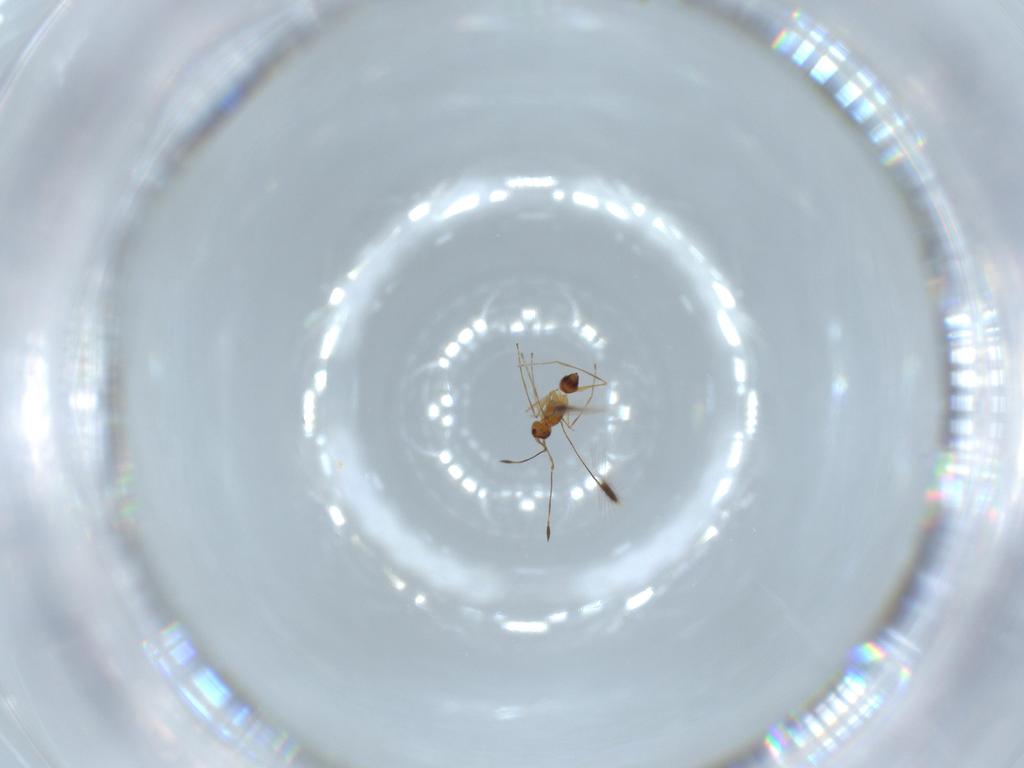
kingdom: Animalia
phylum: Arthropoda
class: Insecta
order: Hymenoptera
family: Mutillidae
